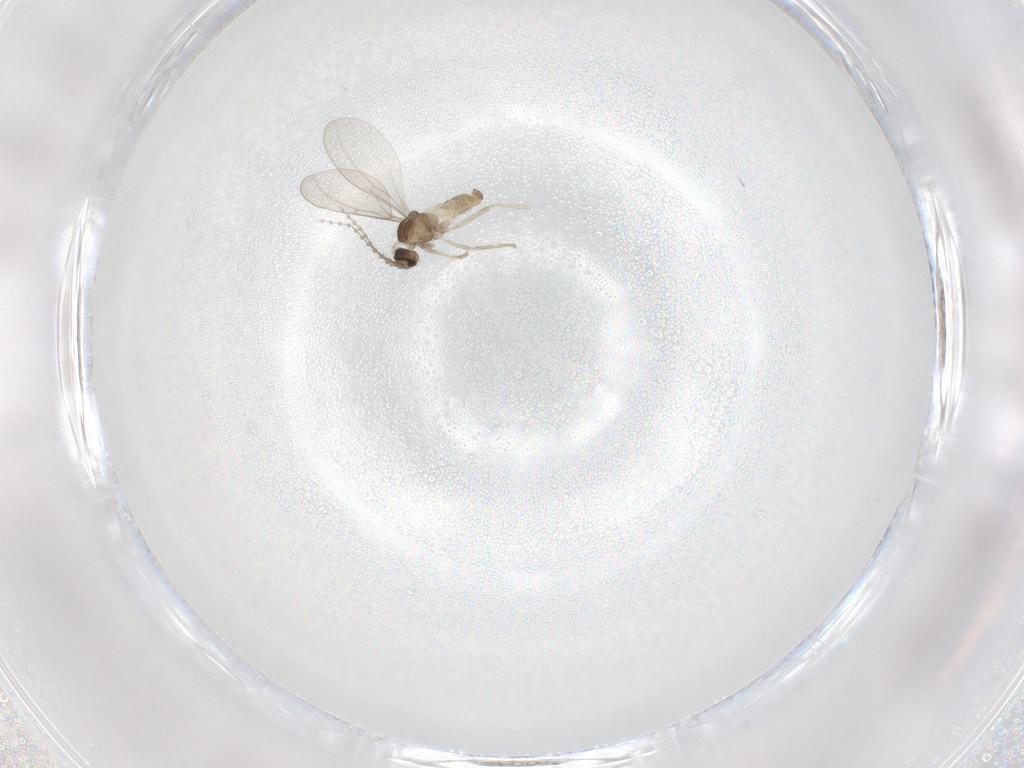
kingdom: Animalia
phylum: Arthropoda
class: Insecta
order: Diptera
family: Cecidomyiidae
